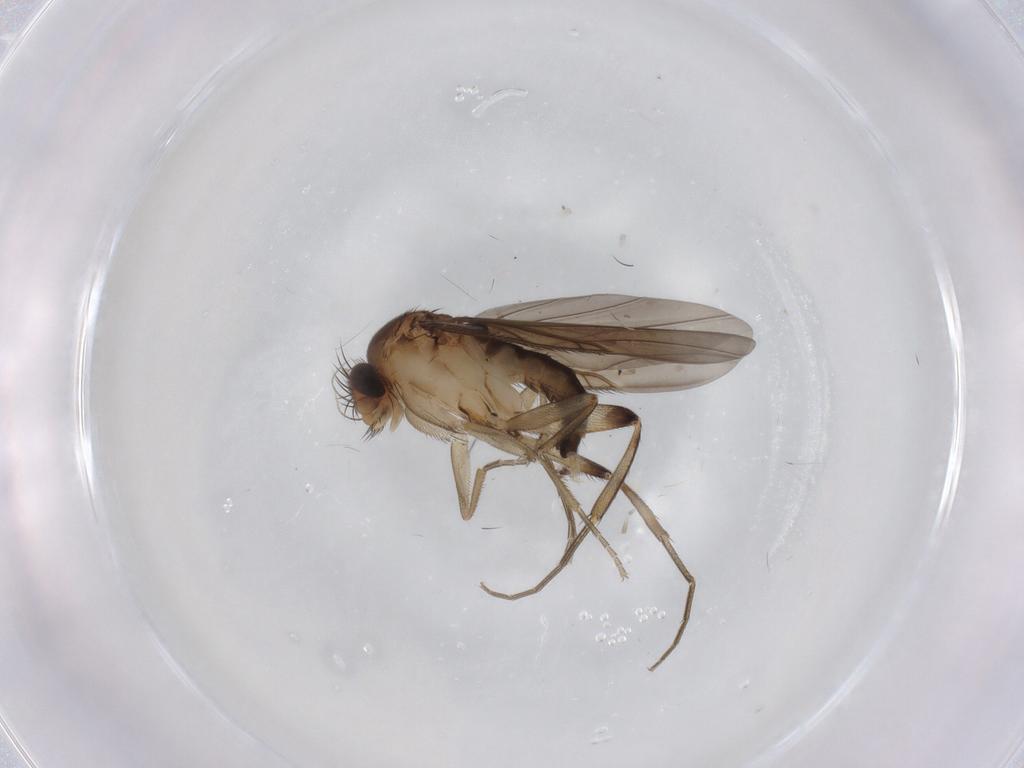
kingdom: Animalia
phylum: Arthropoda
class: Insecta
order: Diptera
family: Phoridae
